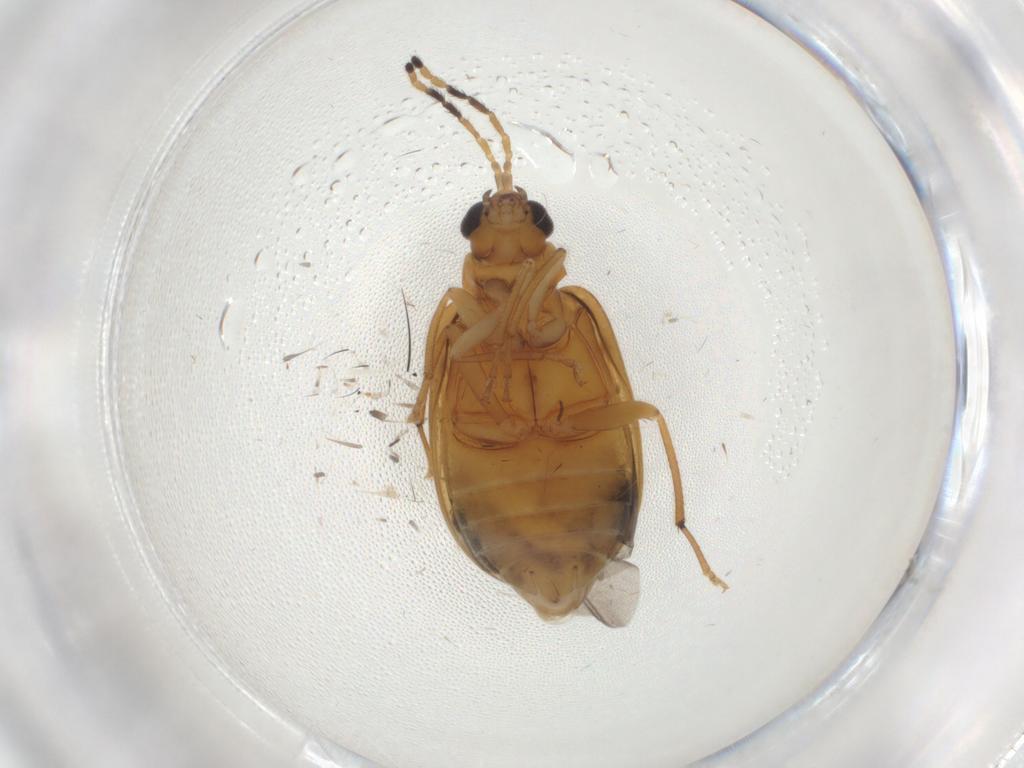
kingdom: Animalia
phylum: Arthropoda
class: Insecta
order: Coleoptera
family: Chrysomelidae
